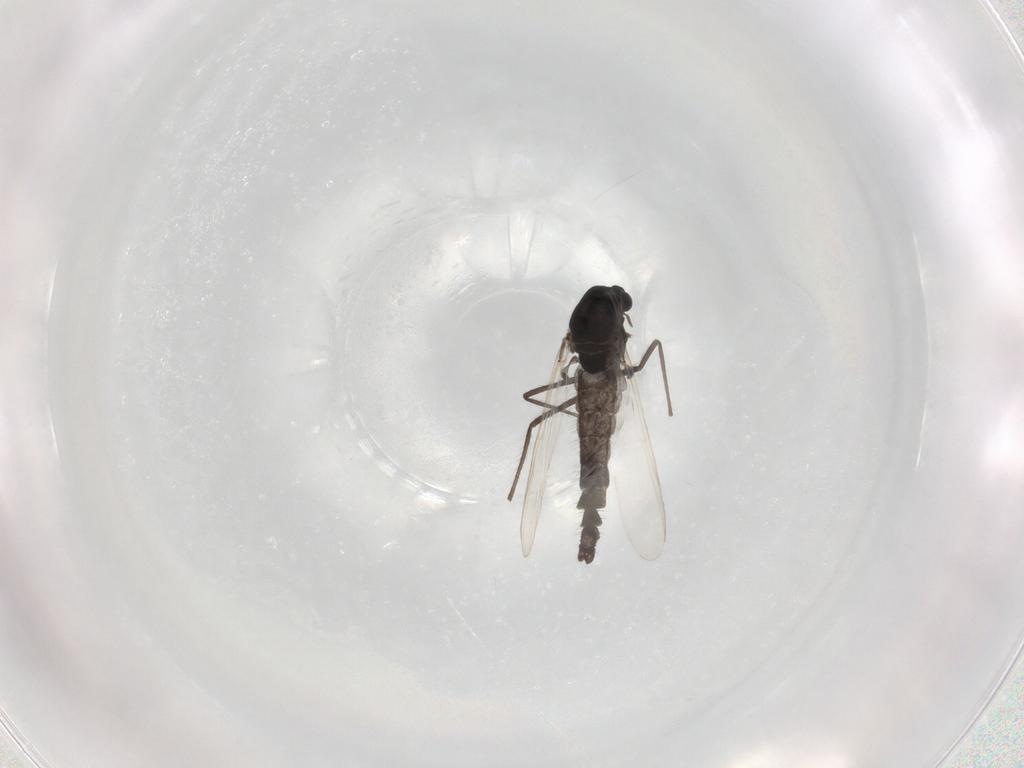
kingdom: Animalia
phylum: Arthropoda
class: Insecta
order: Diptera
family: Chironomidae
